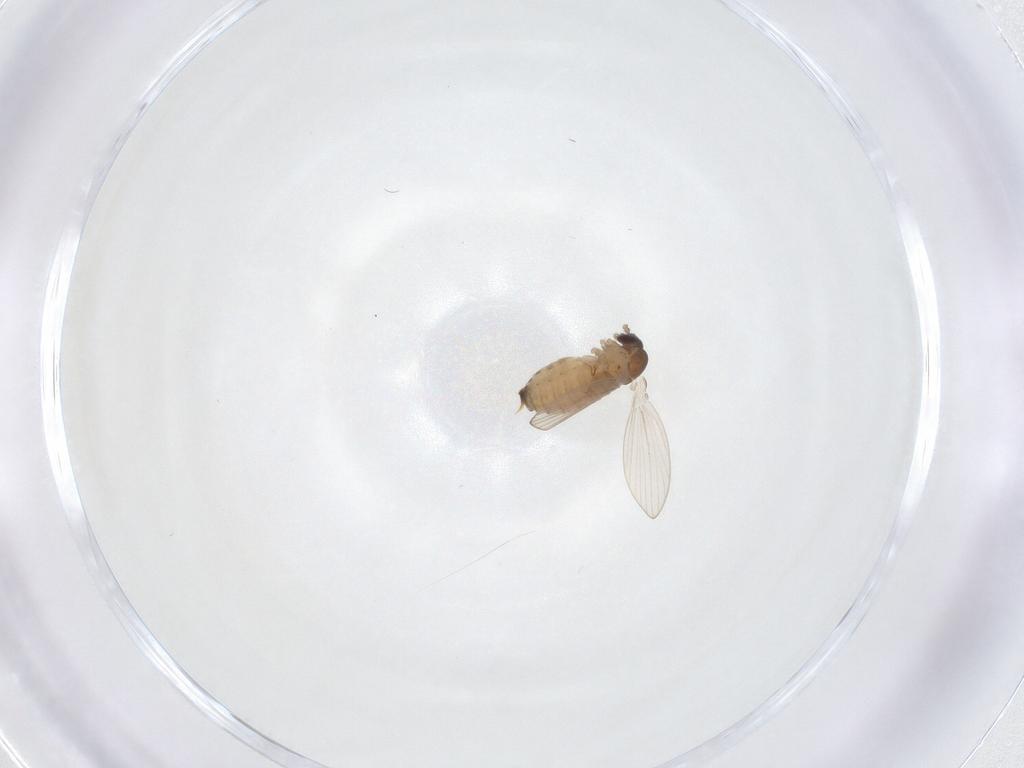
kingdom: Animalia
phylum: Arthropoda
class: Insecta
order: Diptera
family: Psychodidae
